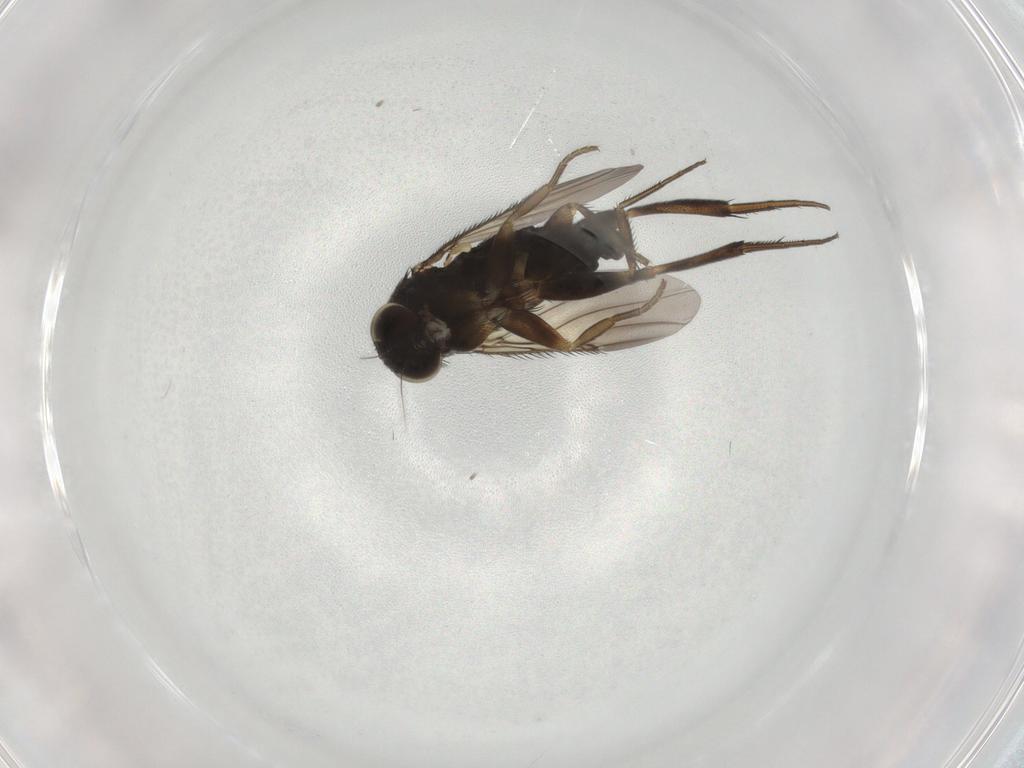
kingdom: Animalia
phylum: Arthropoda
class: Insecta
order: Diptera
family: Phoridae
